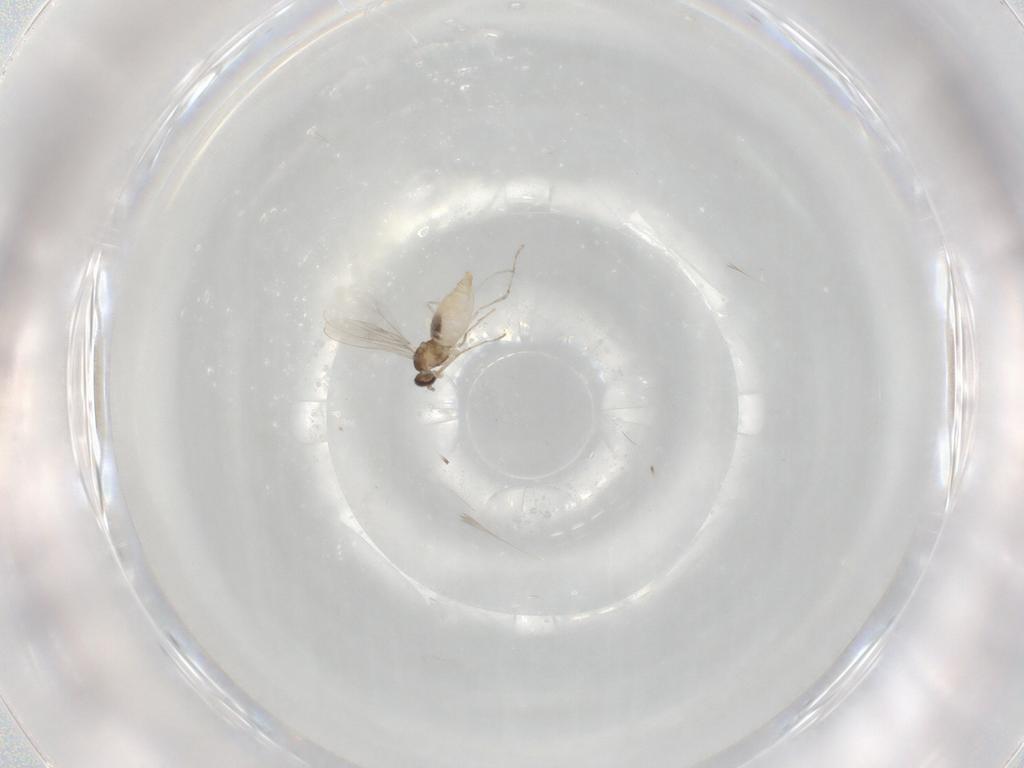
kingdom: Animalia
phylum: Arthropoda
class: Insecta
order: Diptera
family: Cecidomyiidae
